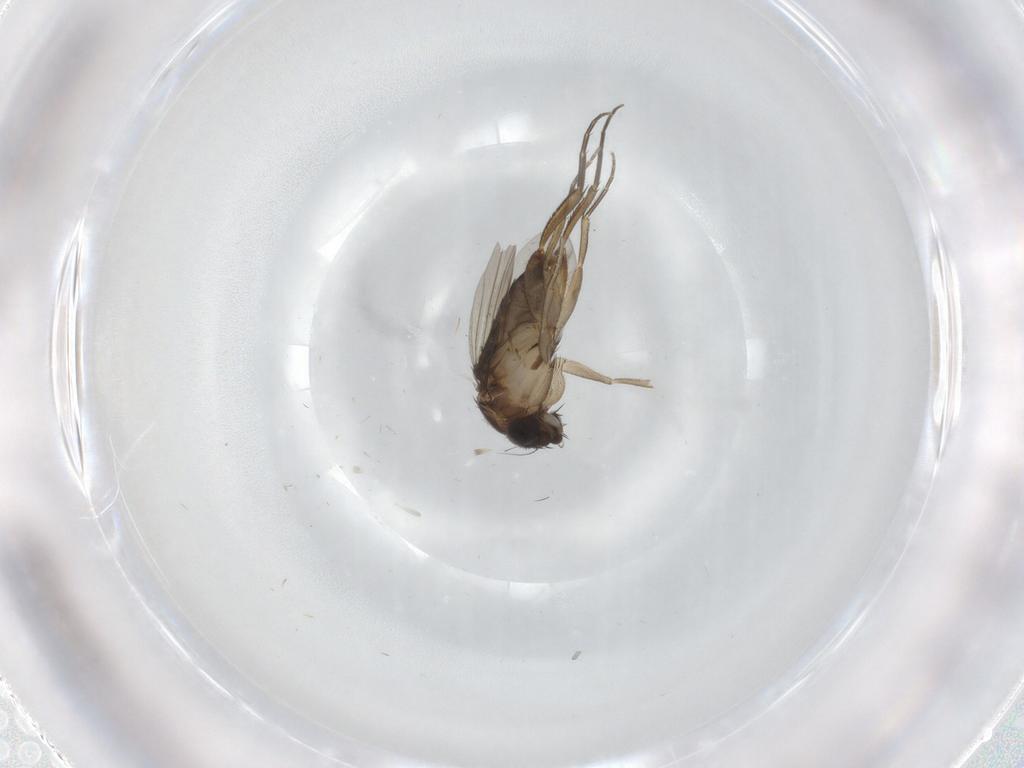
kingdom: Animalia
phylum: Arthropoda
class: Insecta
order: Diptera
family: Phoridae
